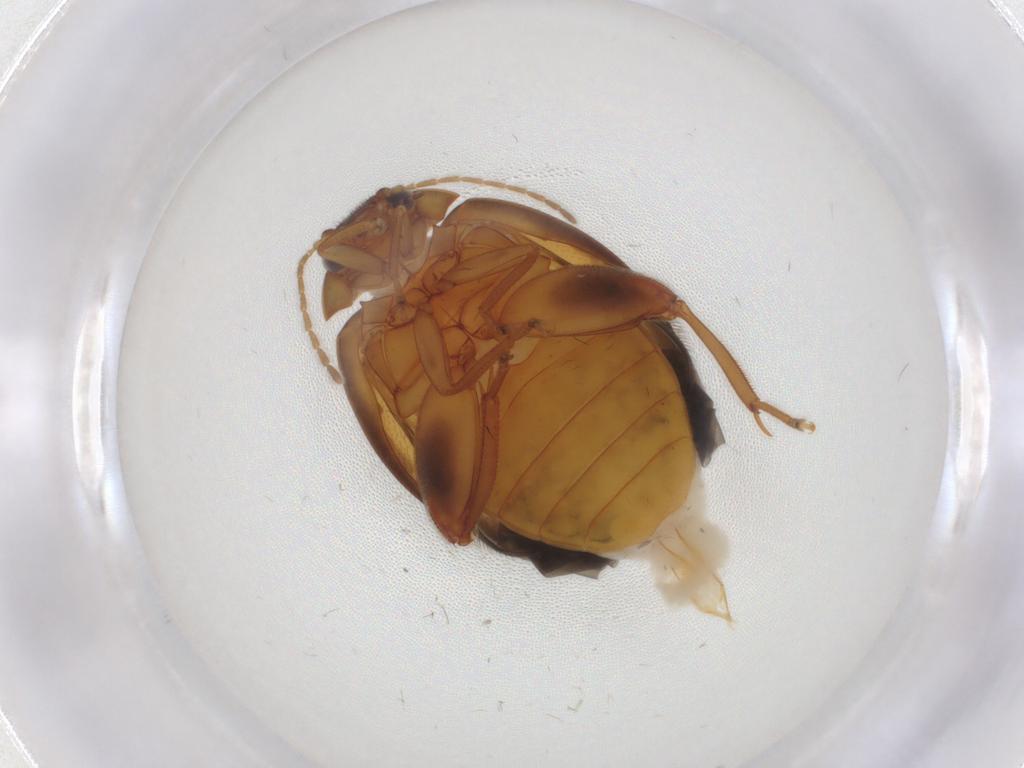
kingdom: Animalia
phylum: Arthropoda
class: Insecta
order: Coleoptera
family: Scirtidae
